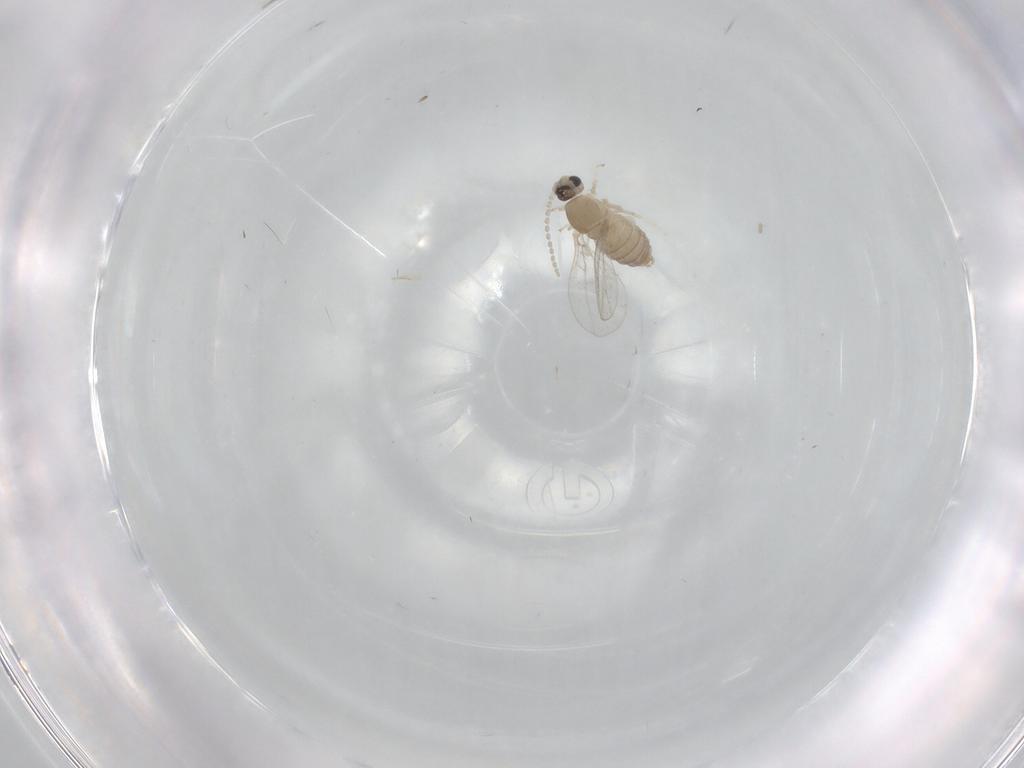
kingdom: Animalia
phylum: Arthropoda
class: Insecta
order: Diptera
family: Cecidomyiidae
